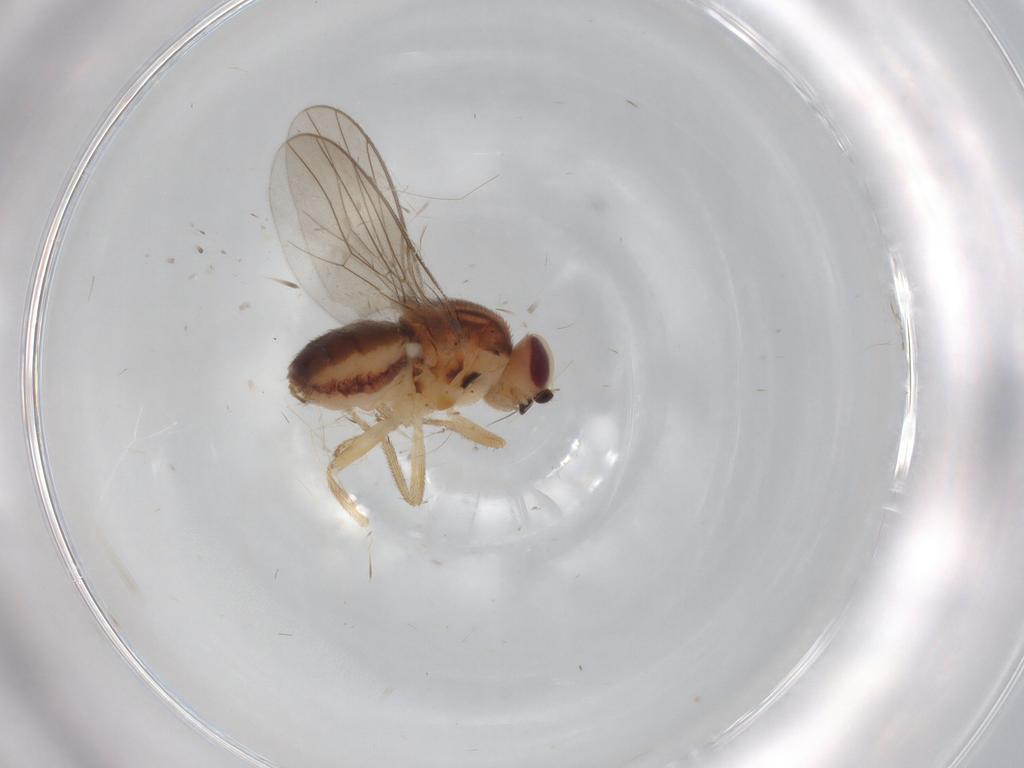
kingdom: Animalia
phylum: Arthropoda
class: Insecta
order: Diptera
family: Chloropidae
